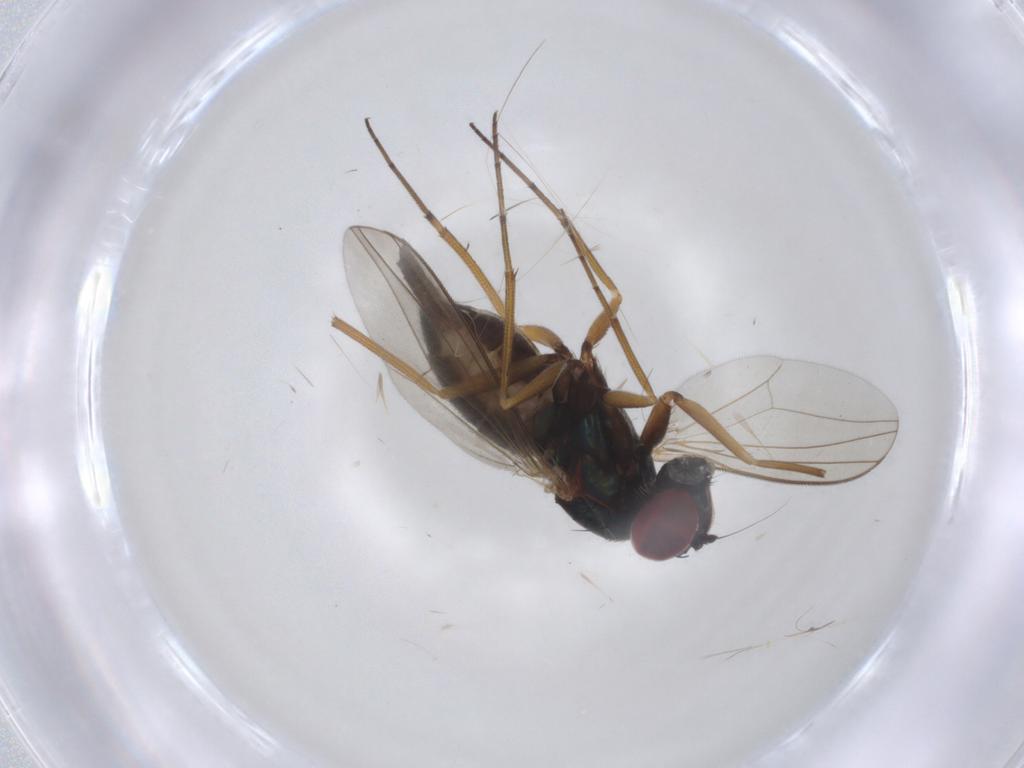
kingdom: Animalia
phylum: Arthropoda
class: Insecta
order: Diptera
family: Dolichopodidae
